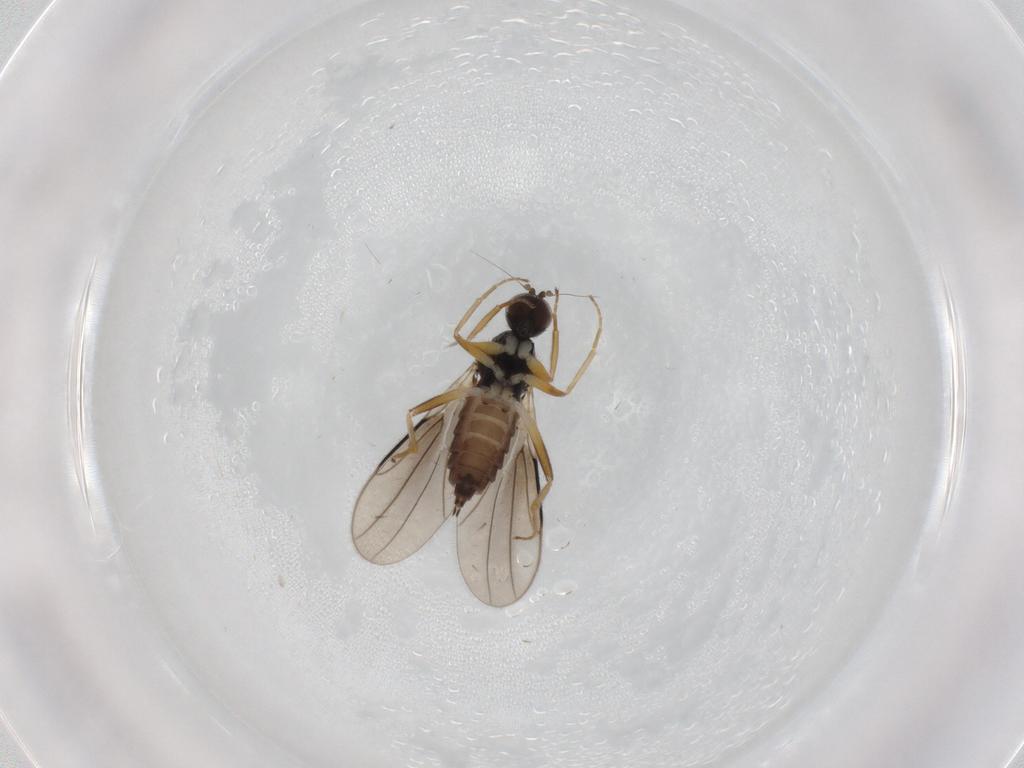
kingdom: Animalia
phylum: Arthropoda
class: Insecta
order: Diptera
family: Hybotidae
